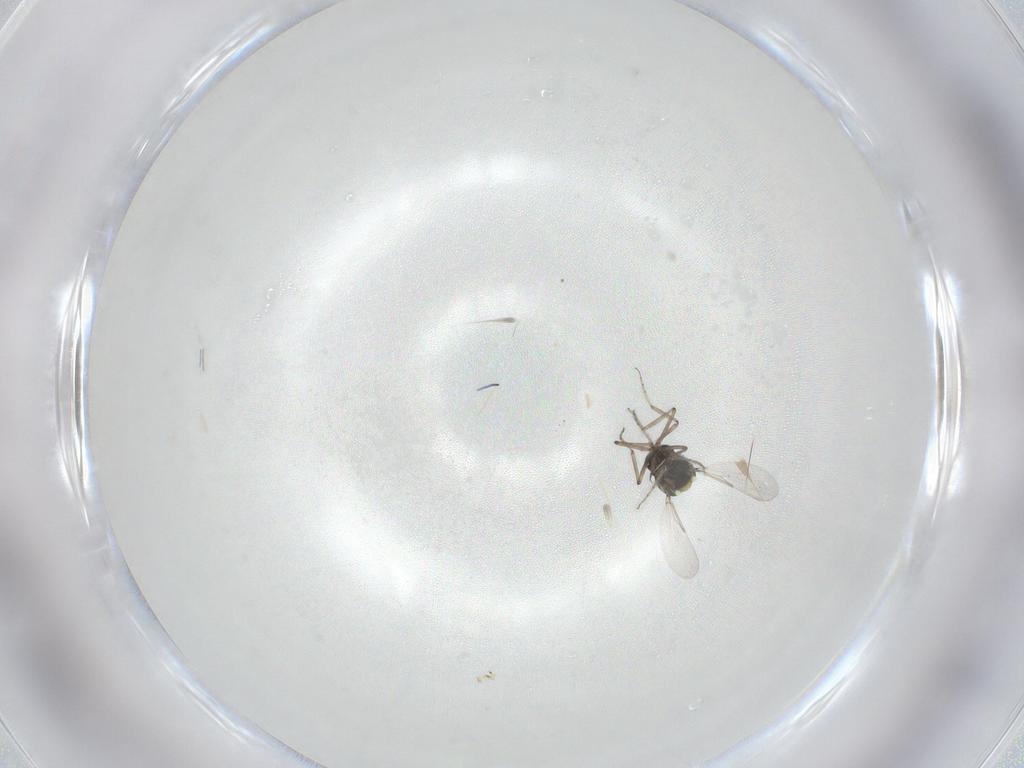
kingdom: Animalia
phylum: Arthropoda
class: Insecta
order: Diptera
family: Ceratopogonidae
